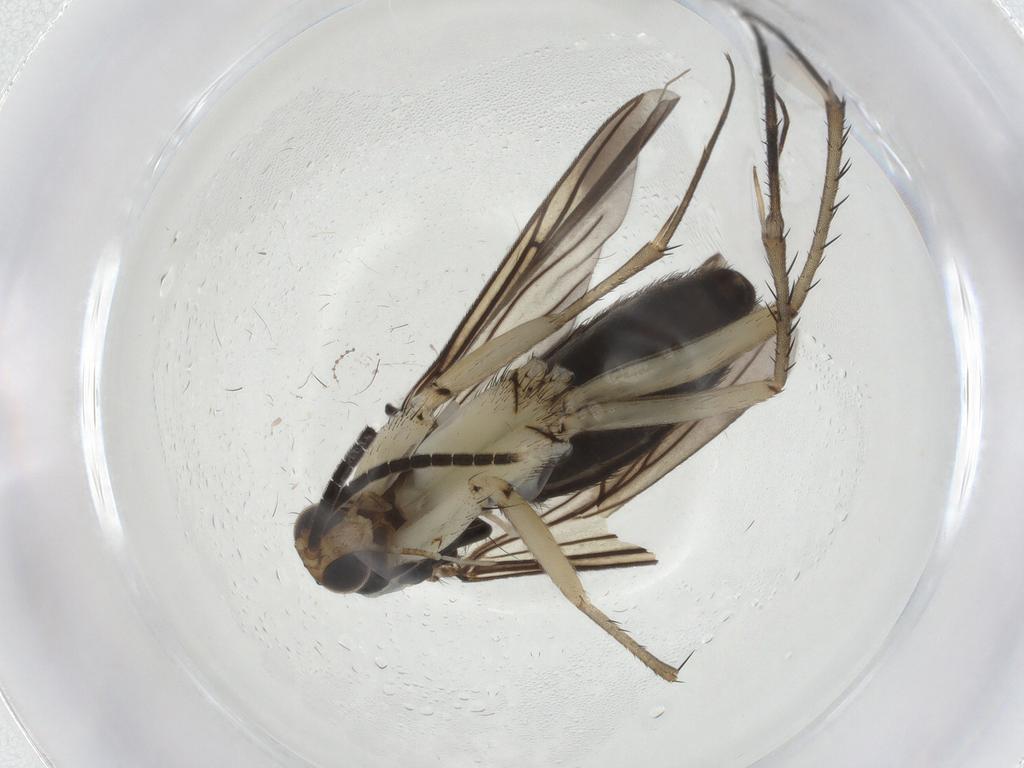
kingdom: Animalia
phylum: Arthropoda
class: Insecta
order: Diptera
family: Mycetophilidae
